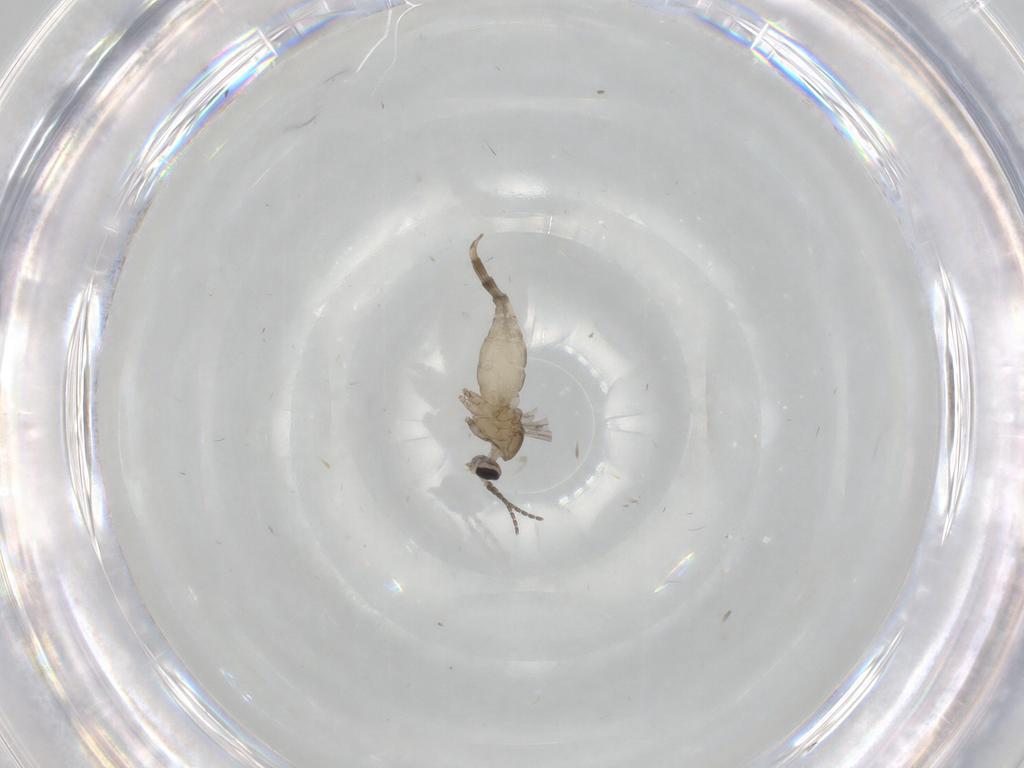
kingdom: Animalia
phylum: Arthropoda
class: Insecta
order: Diptera
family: Cecidomyiidae
